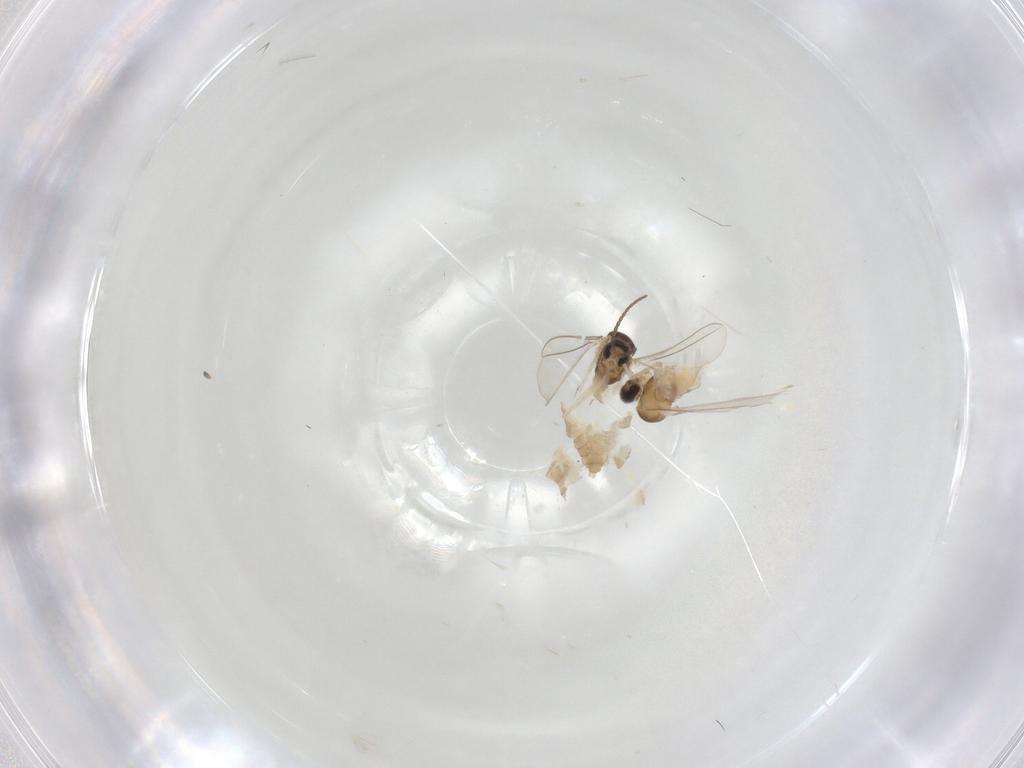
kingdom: Animalia
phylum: Arthropoda
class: Insecta
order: Diptera
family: Cecidomyiidae
